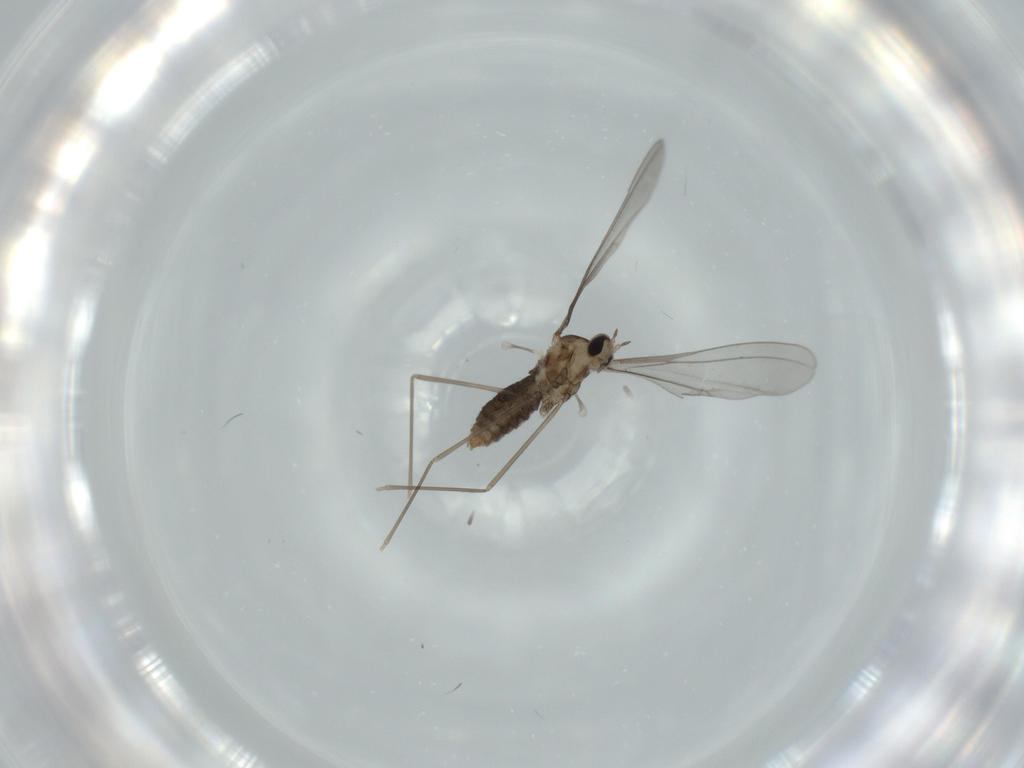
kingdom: Animalia
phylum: Arthropoda
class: Insecta
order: Diptera
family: Cecidomyiidae
